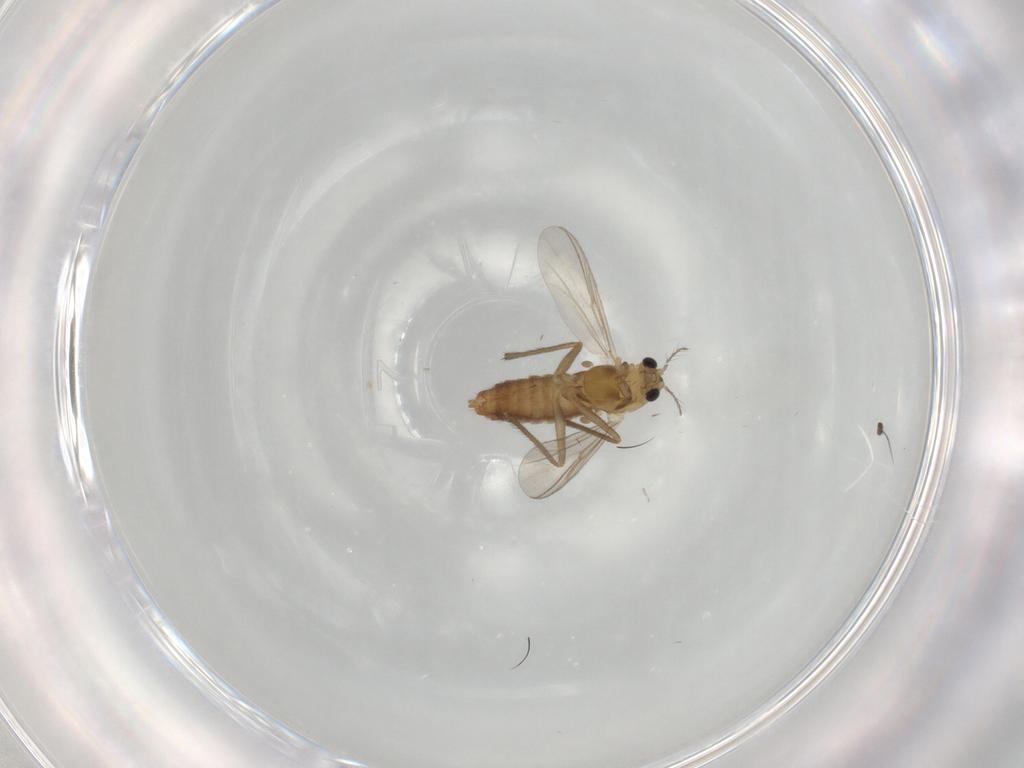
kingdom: Animalia
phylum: Arthropoda
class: Insecta
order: Diptera
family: Chironomidae
